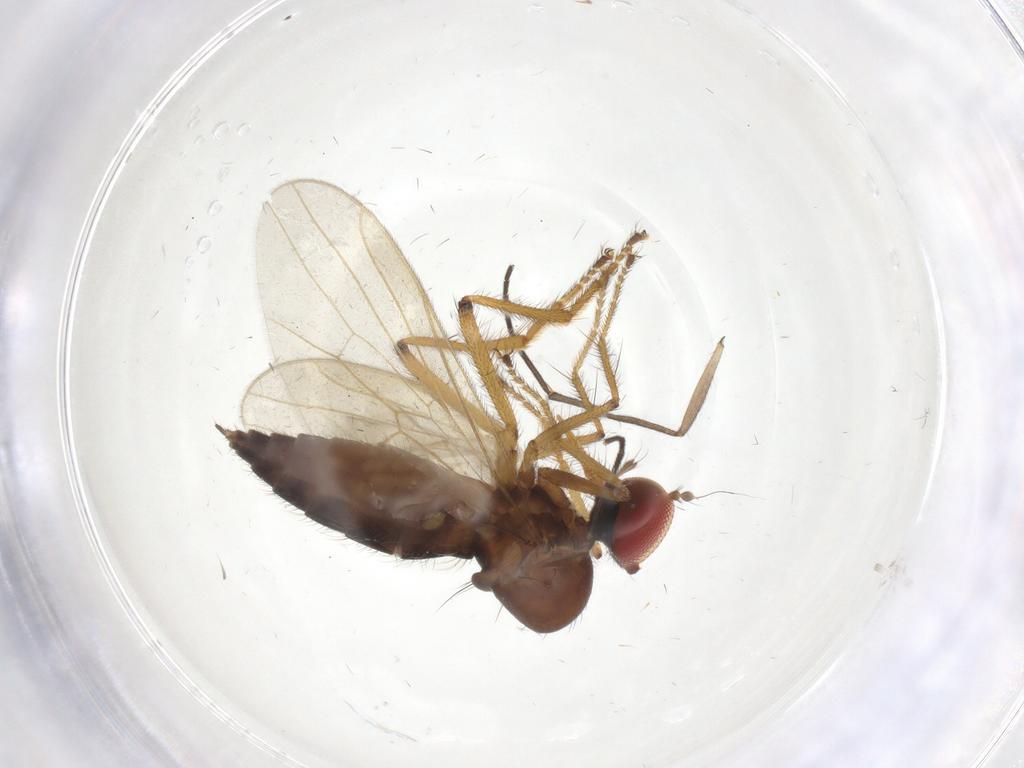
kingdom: Animalia
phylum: Arthropoda
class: Insecta
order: Diptera
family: Hybotidae
